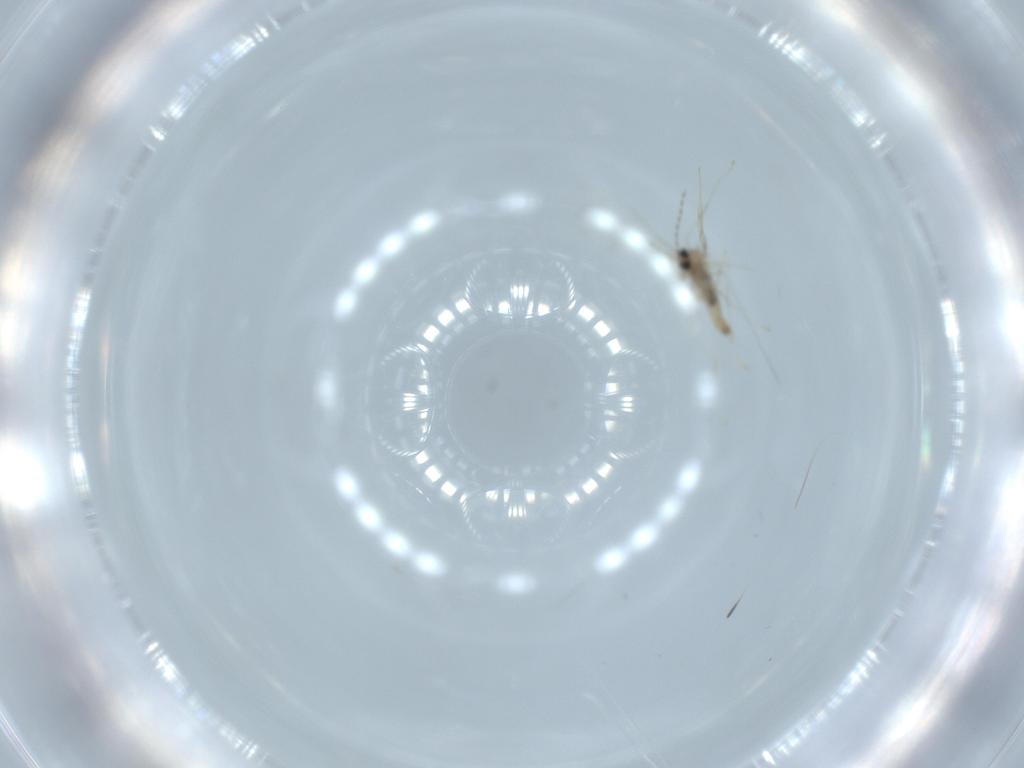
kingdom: Animalia
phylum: Arthropoda
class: Insecta
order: Diptera
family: Cecidomyiidae
